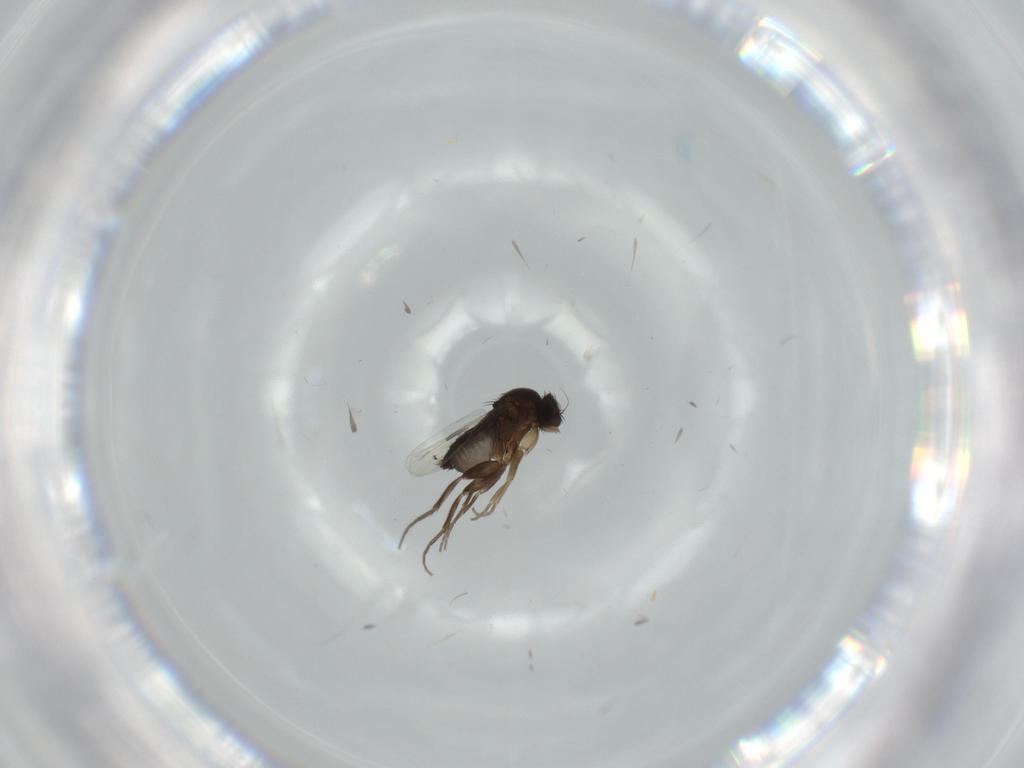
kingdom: Animalia
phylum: Arthropoda
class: Insecta
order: Diptera
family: Phoridae
